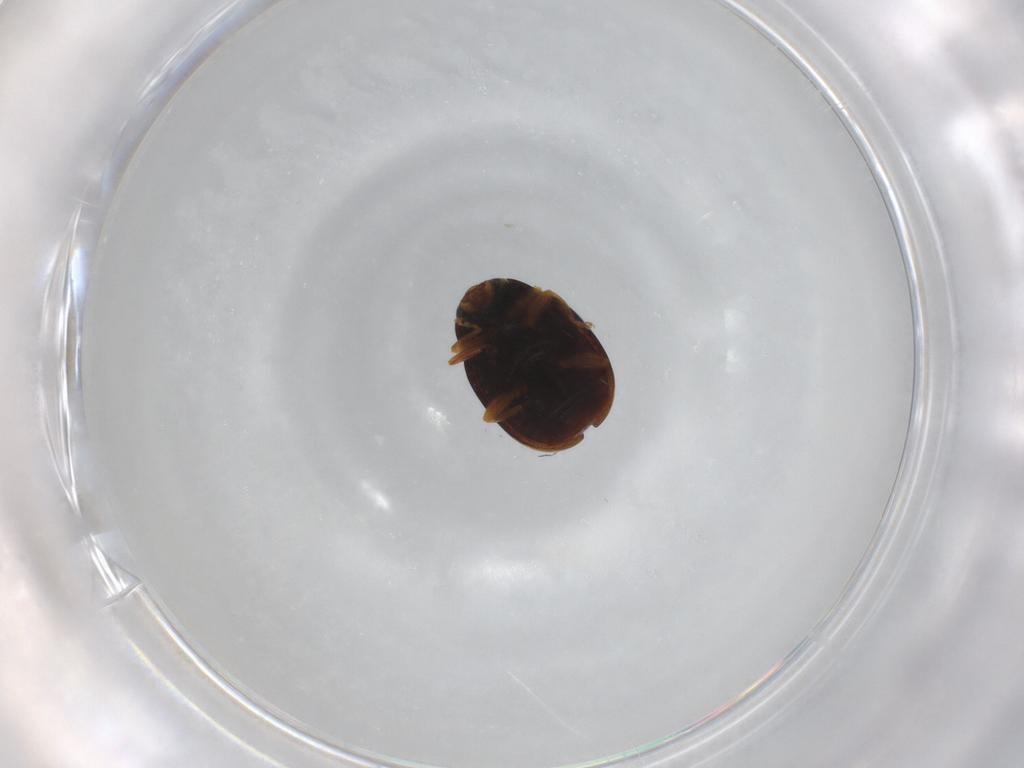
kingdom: Animalia
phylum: Arthropoda
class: Insecta
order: Coleoptera
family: Coccinellidae
